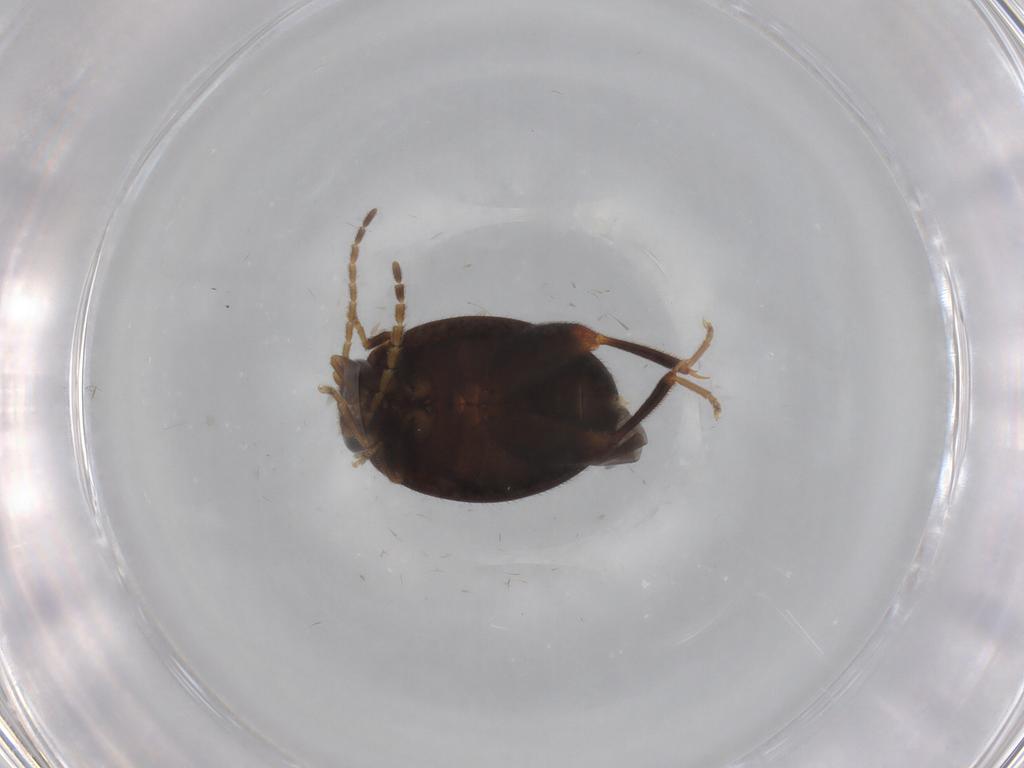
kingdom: Animalia
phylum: Arthropoda
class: Insecta
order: Coleoptera
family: Scirtidae
